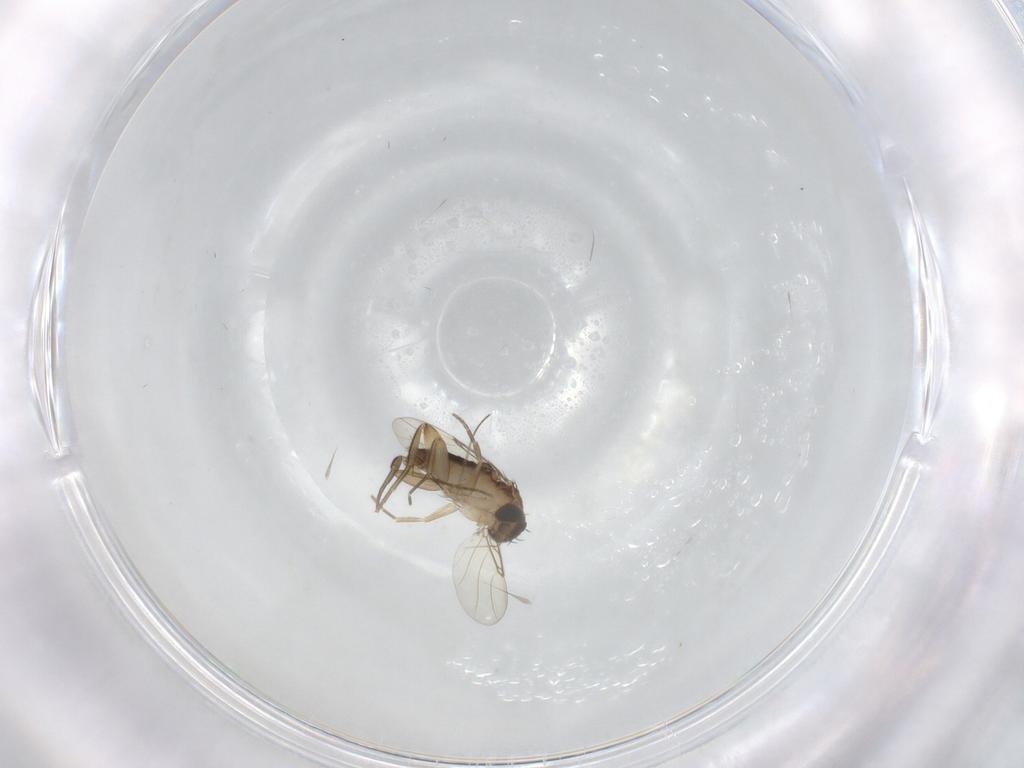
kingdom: Animalia
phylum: Arthropoda
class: Insecta
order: Diptera
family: Phoridae
